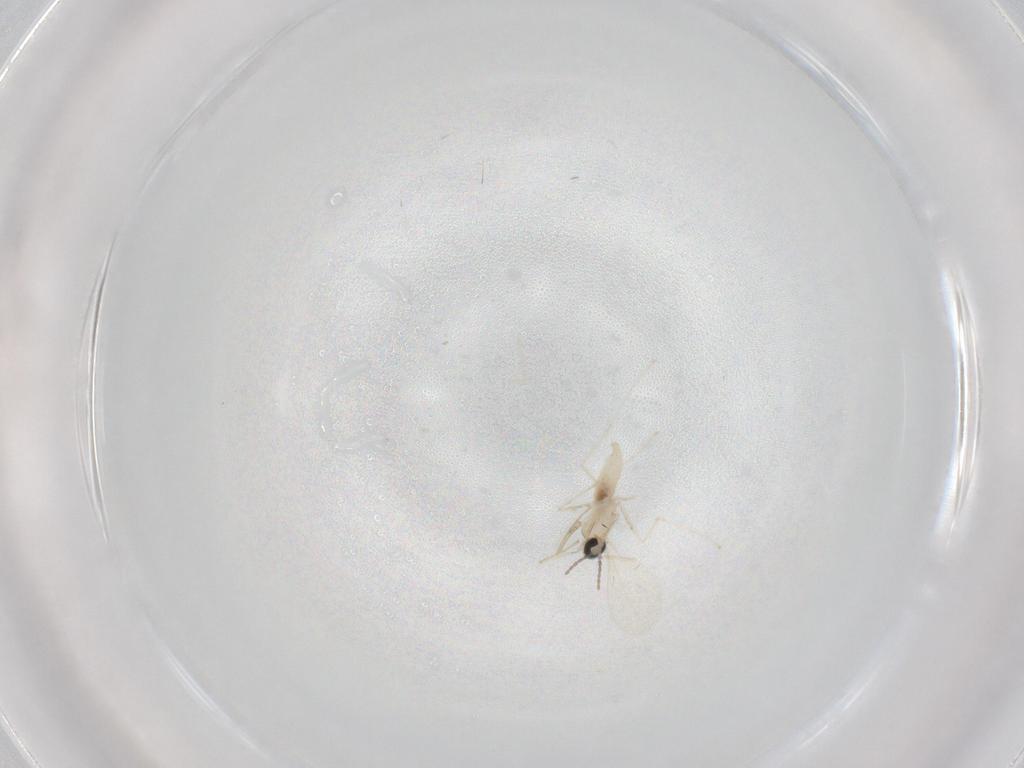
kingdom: Animalia
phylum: Arthropoda
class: Insecta
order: Diptera
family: Cecidomyiidae
